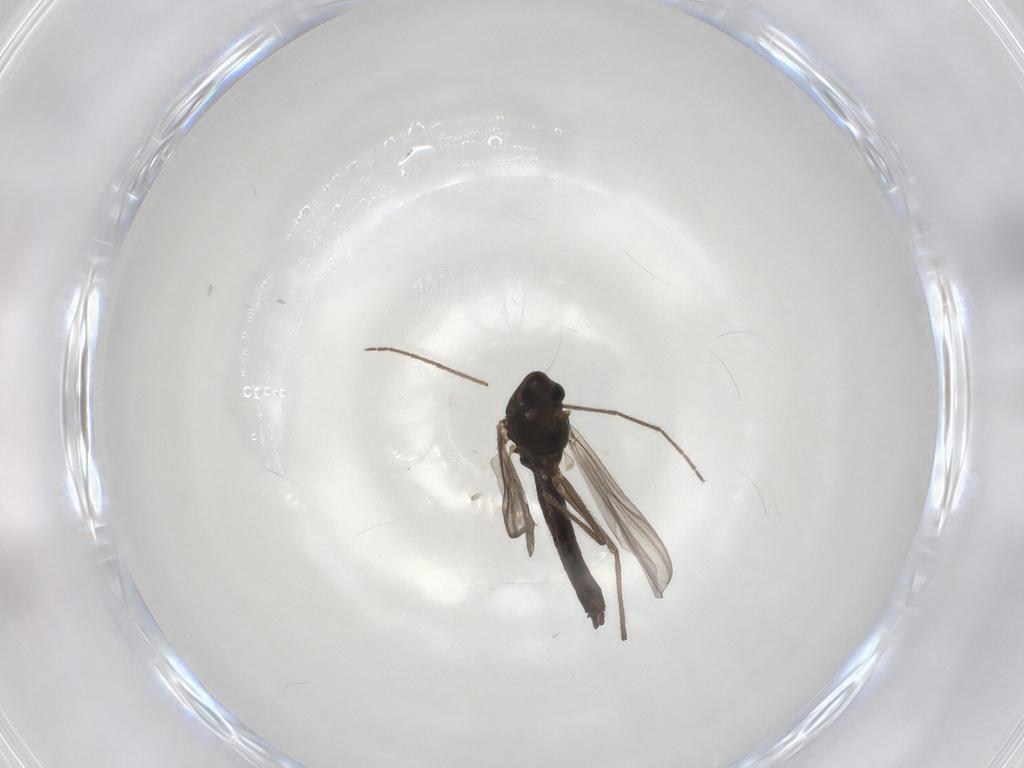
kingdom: Animalia
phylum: Arthropoda
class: Insecta
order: Diptera
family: Chironomidae
